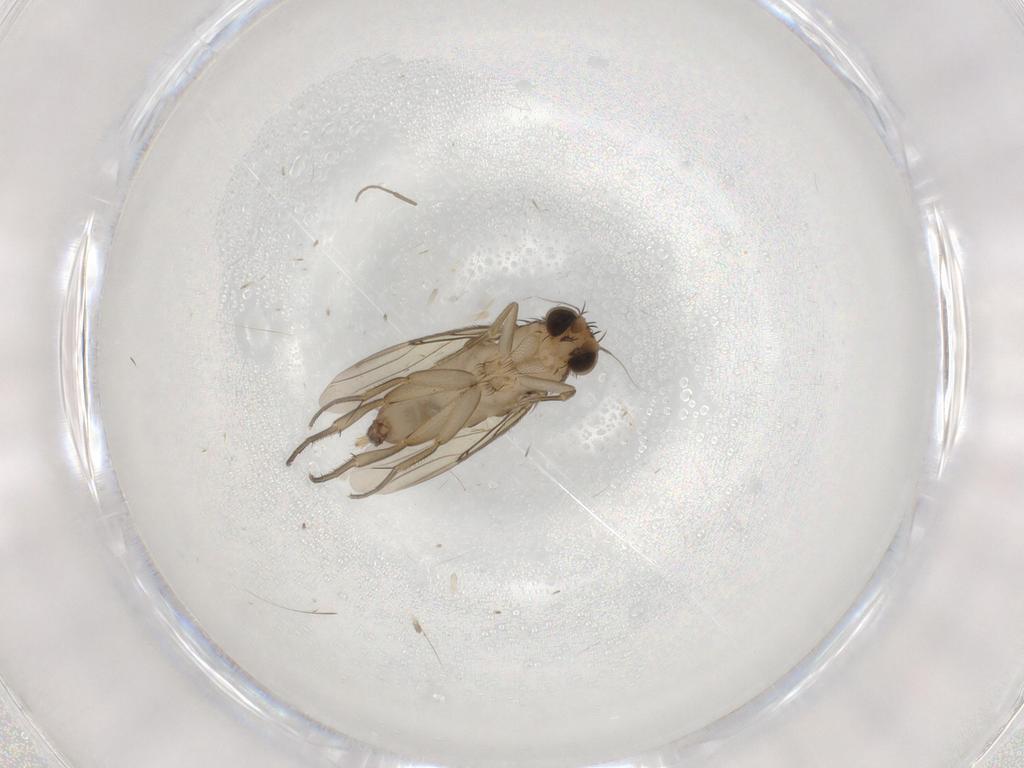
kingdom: Animalia
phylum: Arthropoda
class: Insecta
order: Diptera
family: Phoridae
